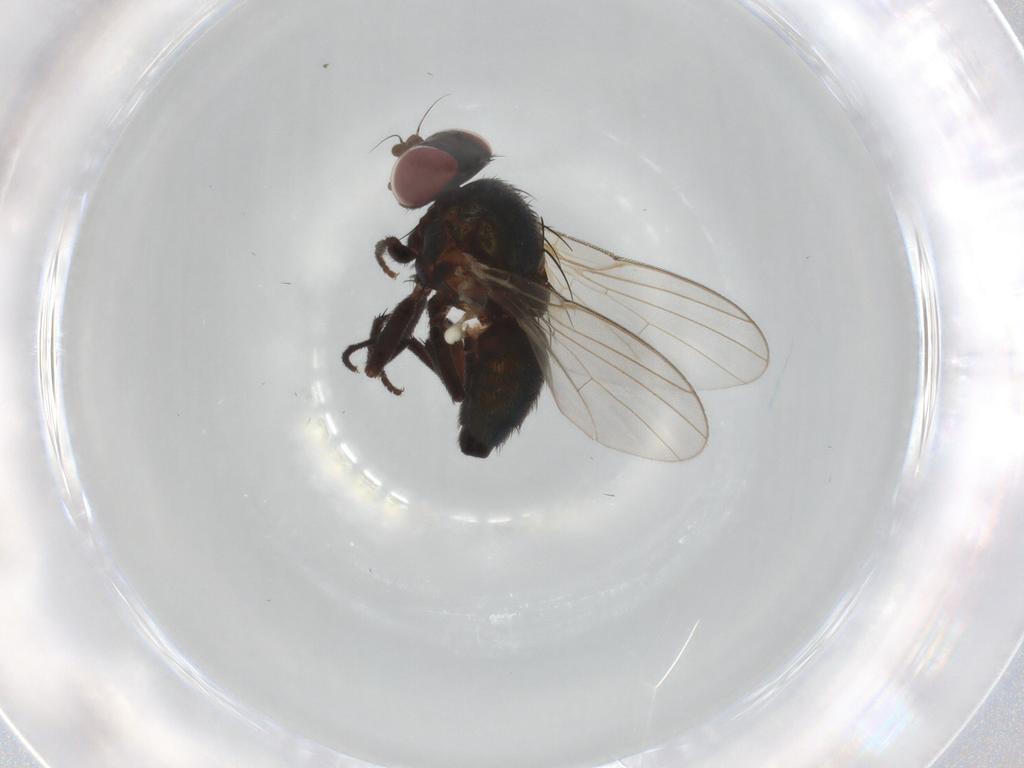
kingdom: Animalia
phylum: Arthropoda
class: Insecta
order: Diptera
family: Agromyzidae
